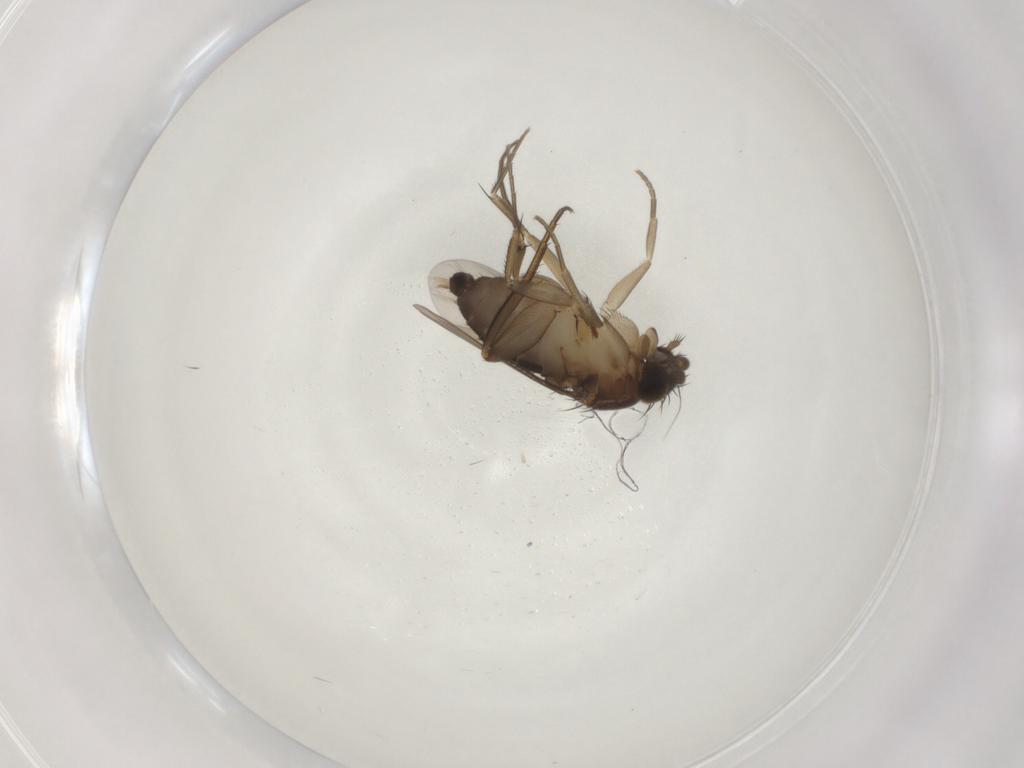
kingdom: Animalia
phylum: Arthropoda
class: Insecta
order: Diptera
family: Phoridae
